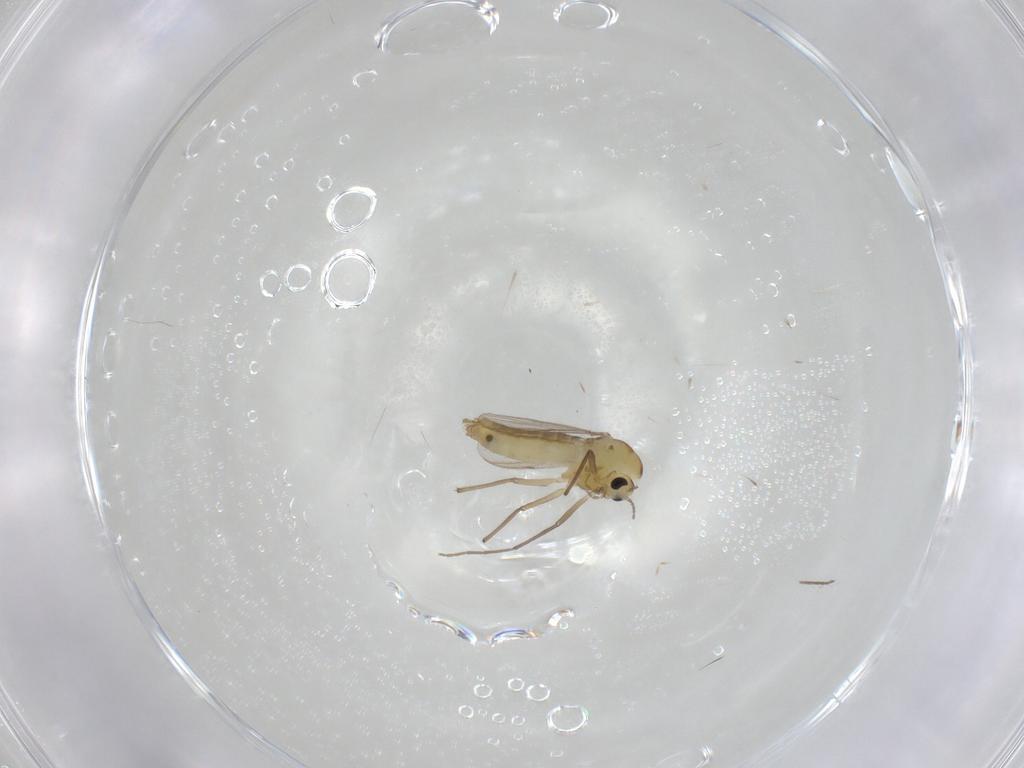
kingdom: Animalia
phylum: Arthropoda
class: Insecta
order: Diptera
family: Chironomidae
